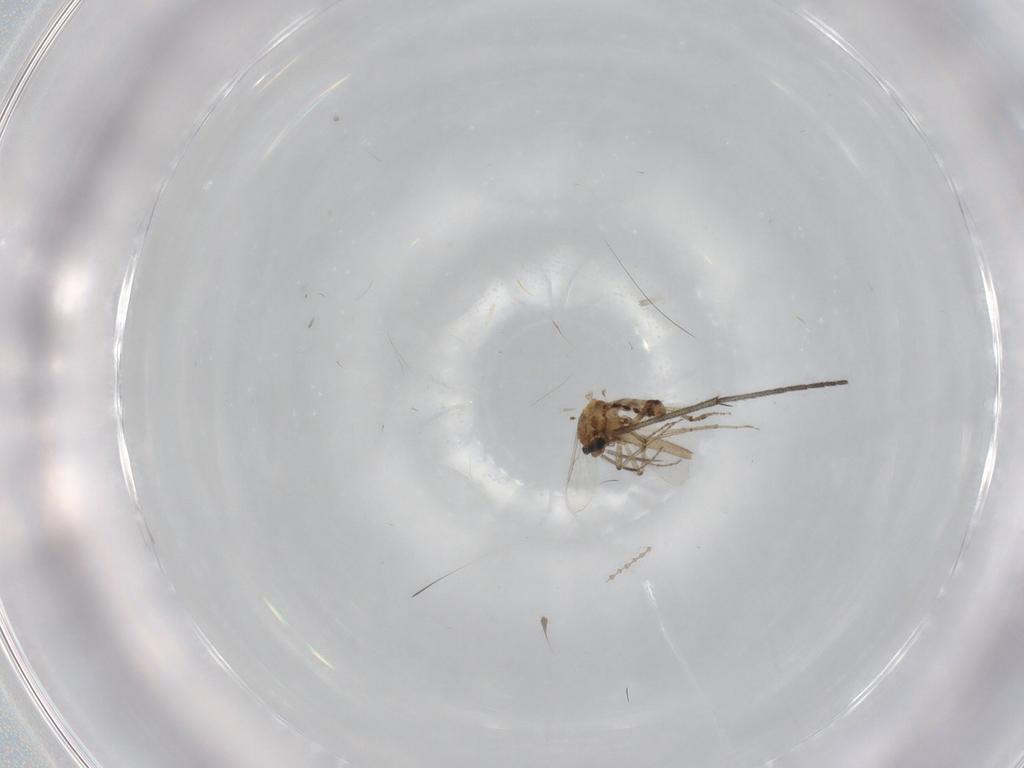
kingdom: Animalia
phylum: Arthropoda
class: Insecta
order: Diptera
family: Ceratopogonidae
